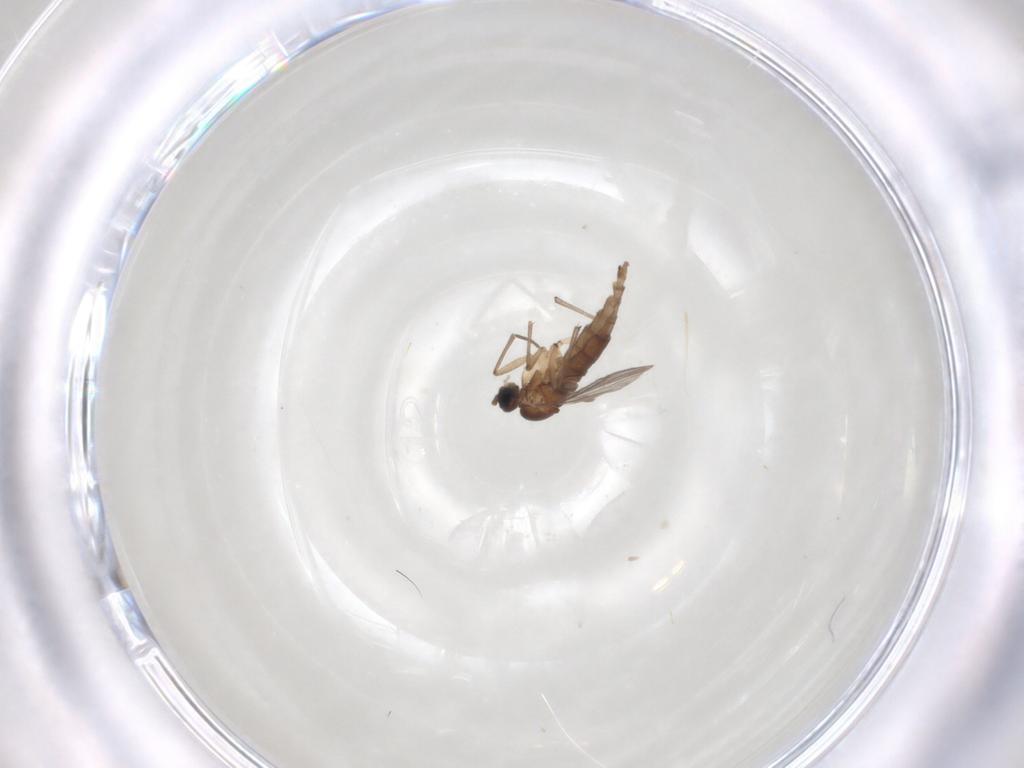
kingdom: Animalia
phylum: Arthropoda
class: Insecta
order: Diptera
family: Sciaridae
